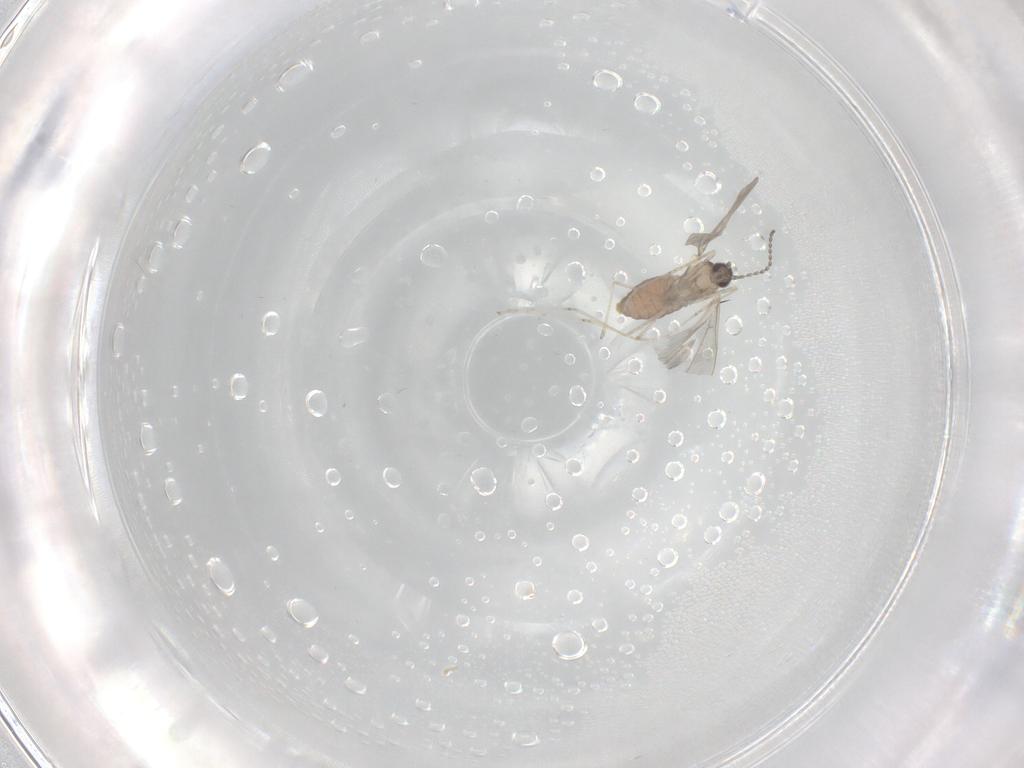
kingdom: Animalia
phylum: Arthropoda
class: Insecta
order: Diptera
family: Cecidomyiidae
